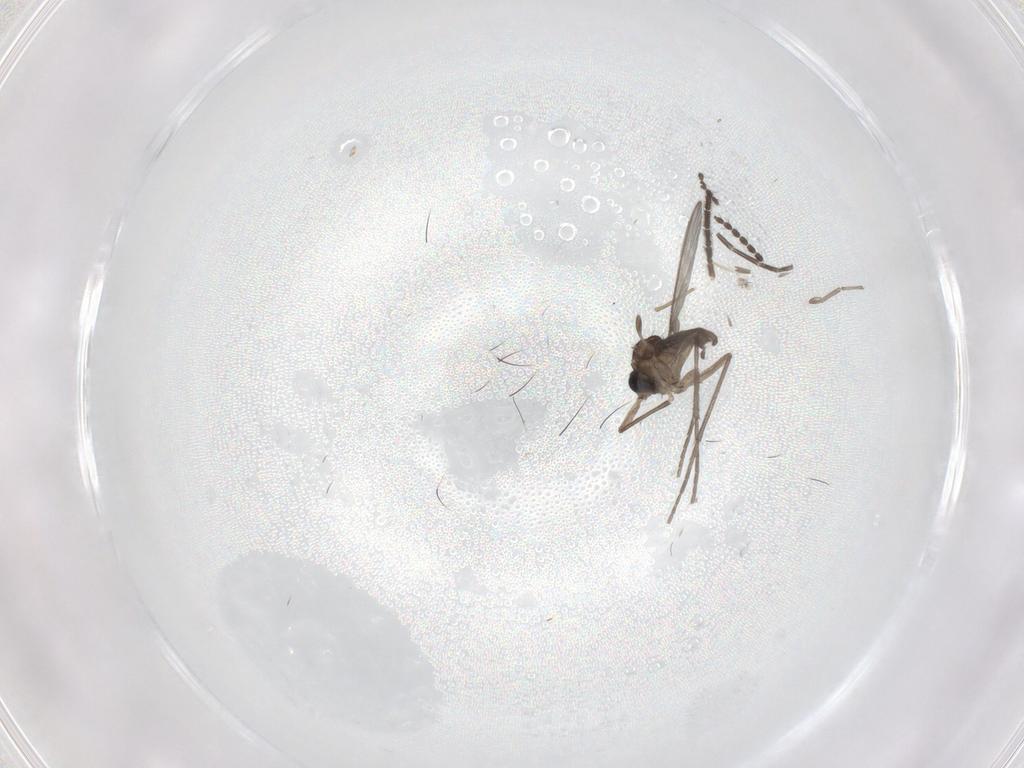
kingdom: Animalia
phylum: Arthropoda
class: Insecta
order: Diptera
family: Sciaridae
